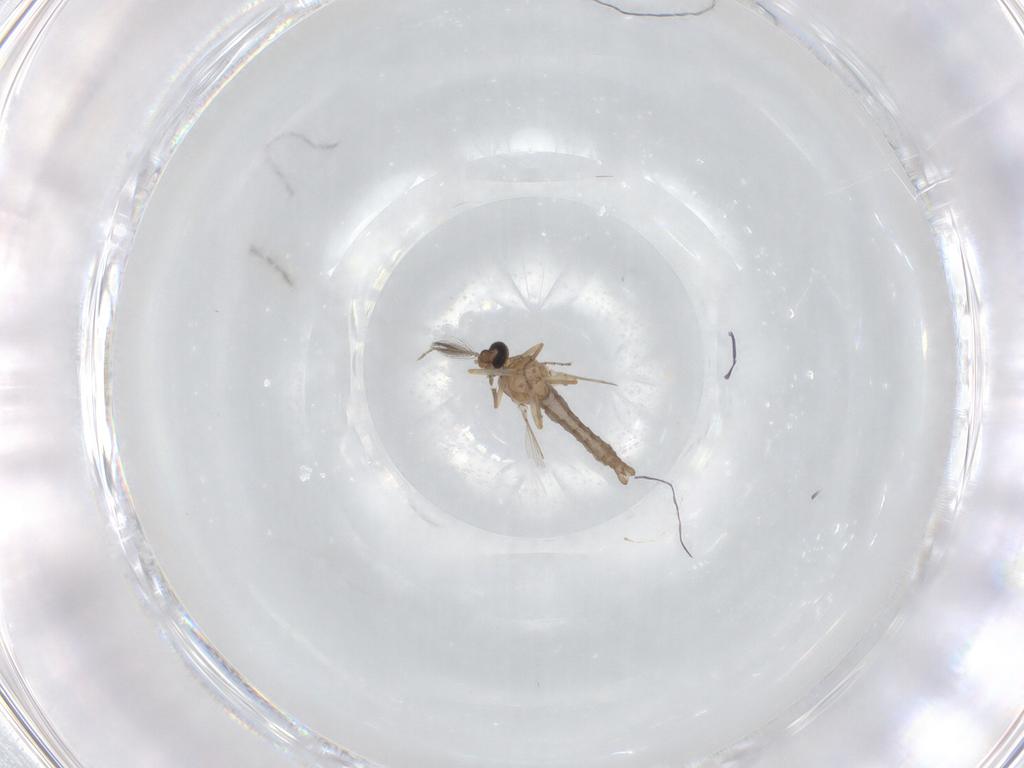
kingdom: Animalia
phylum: Arthropoda
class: Insecta
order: Diptera
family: Ceratopogonidae
